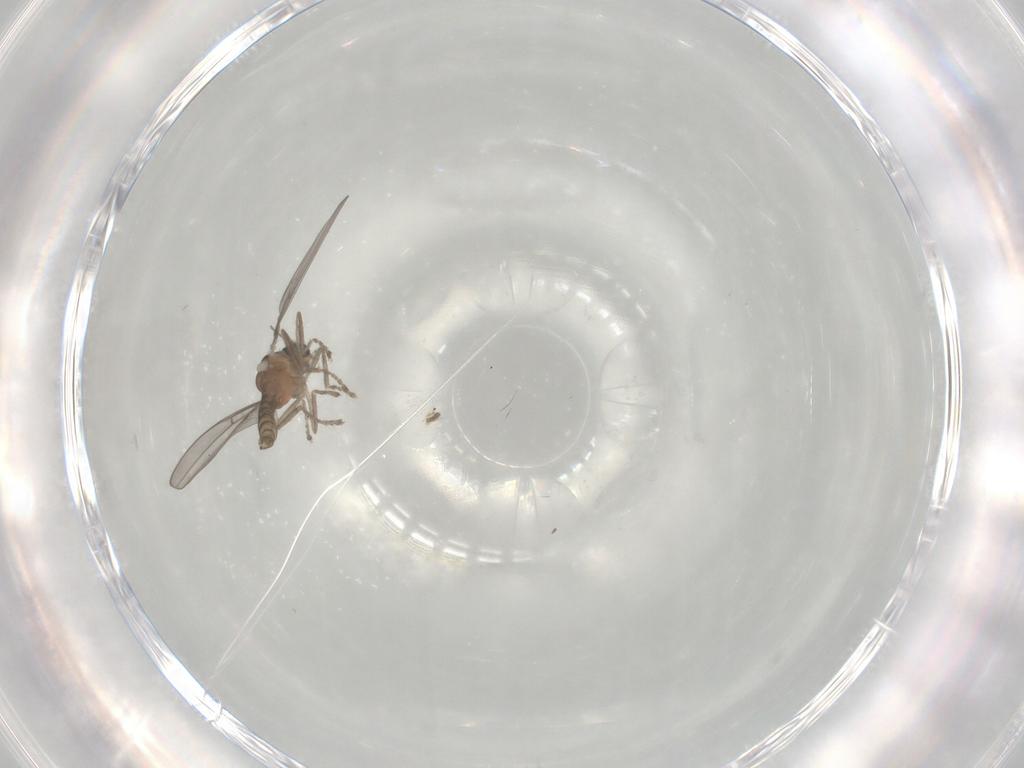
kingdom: Animalia
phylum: Arthropoda
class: Insecta
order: Diptera
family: Cecidomyiidae
